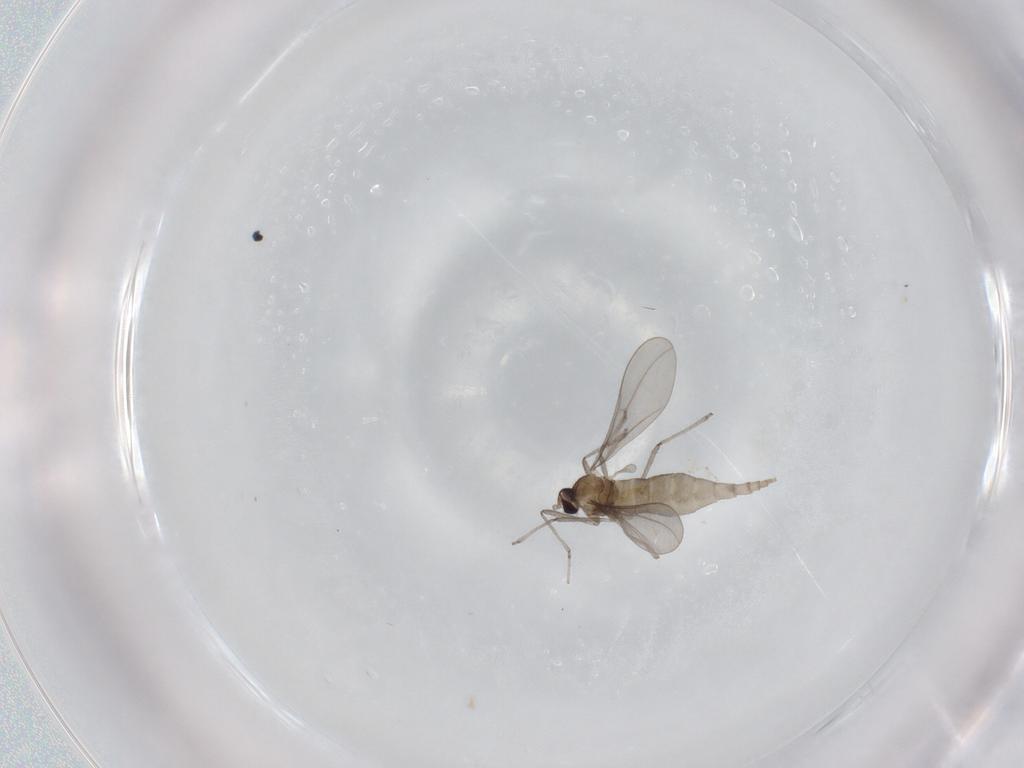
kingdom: Animalia
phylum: Arthropoda
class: Insecta
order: Diptera
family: Cecidomyiidae
